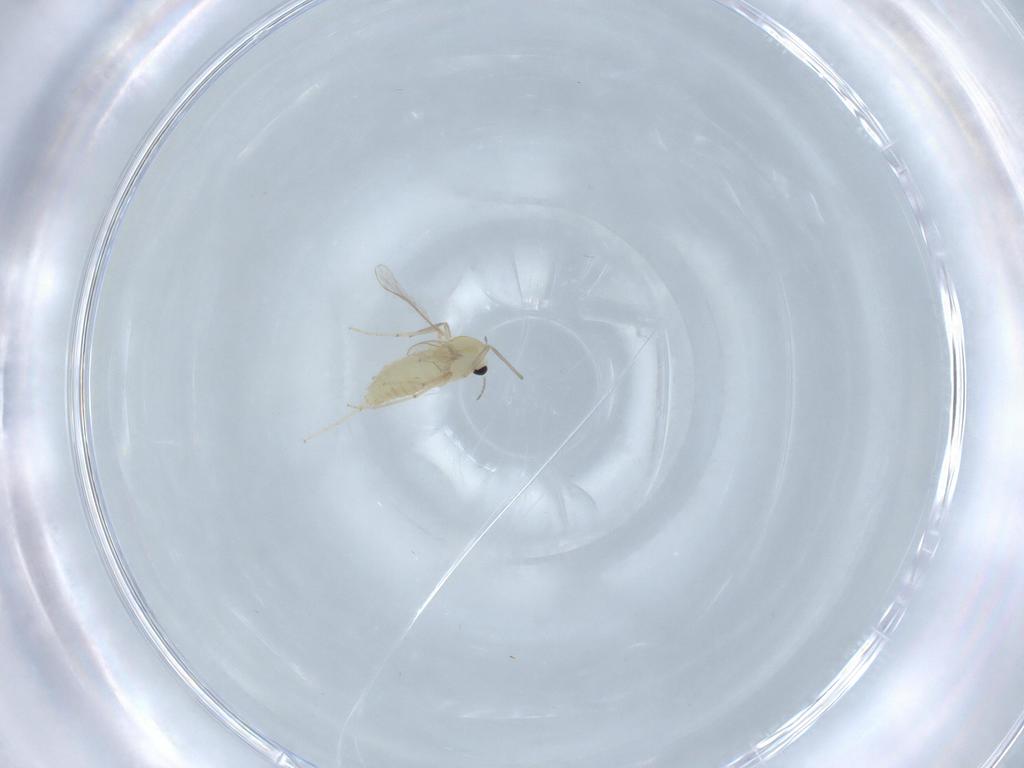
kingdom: Animalia
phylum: Arthropoda
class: Insecta
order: Diptera
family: Chironomidae
